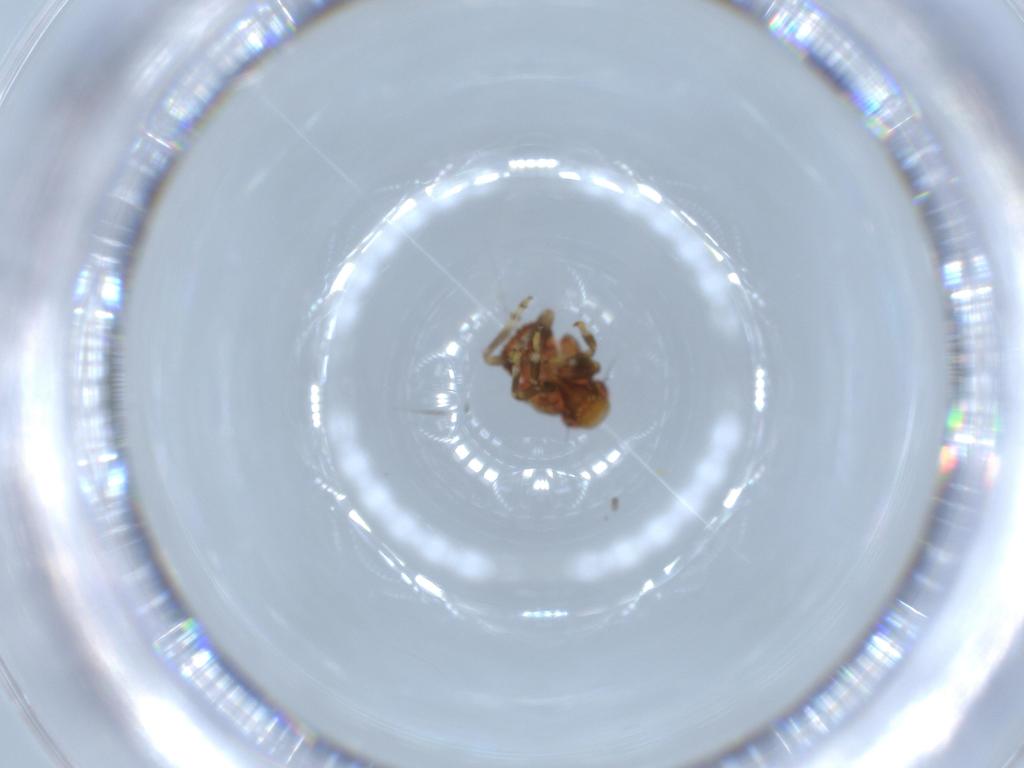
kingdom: Animalia
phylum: Arthropoda
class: Insecta
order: Hemiptera
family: Issidae
